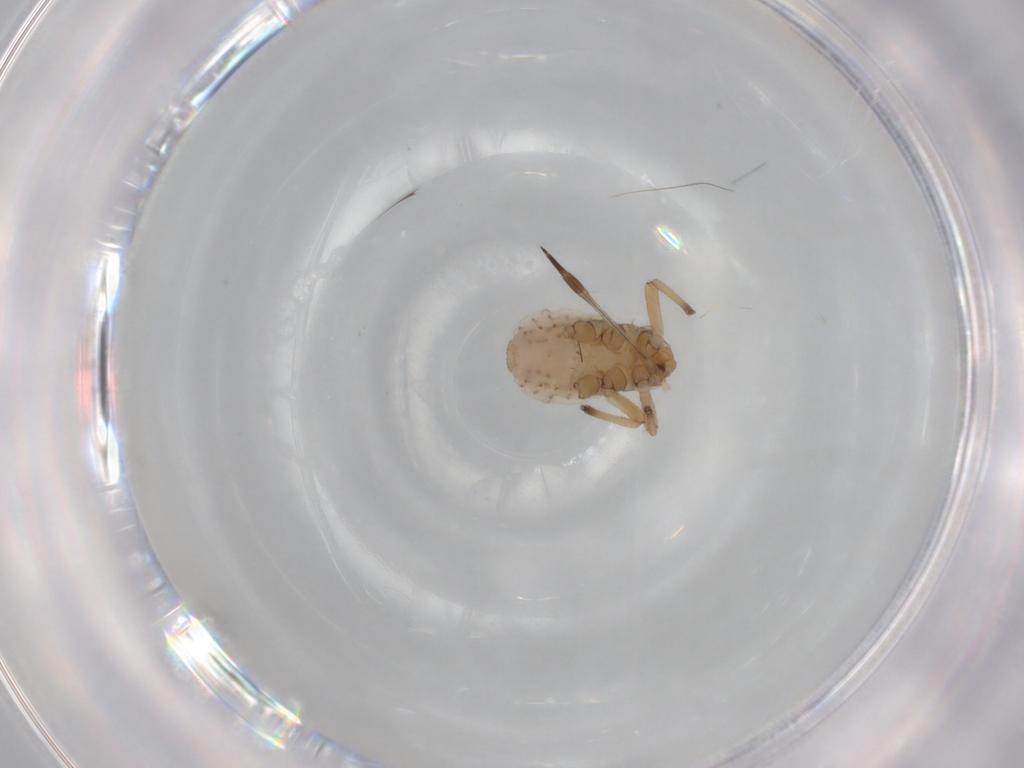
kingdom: Animalia
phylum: Arthropoda
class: Insecta
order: Hemiptera
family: Aphididae
